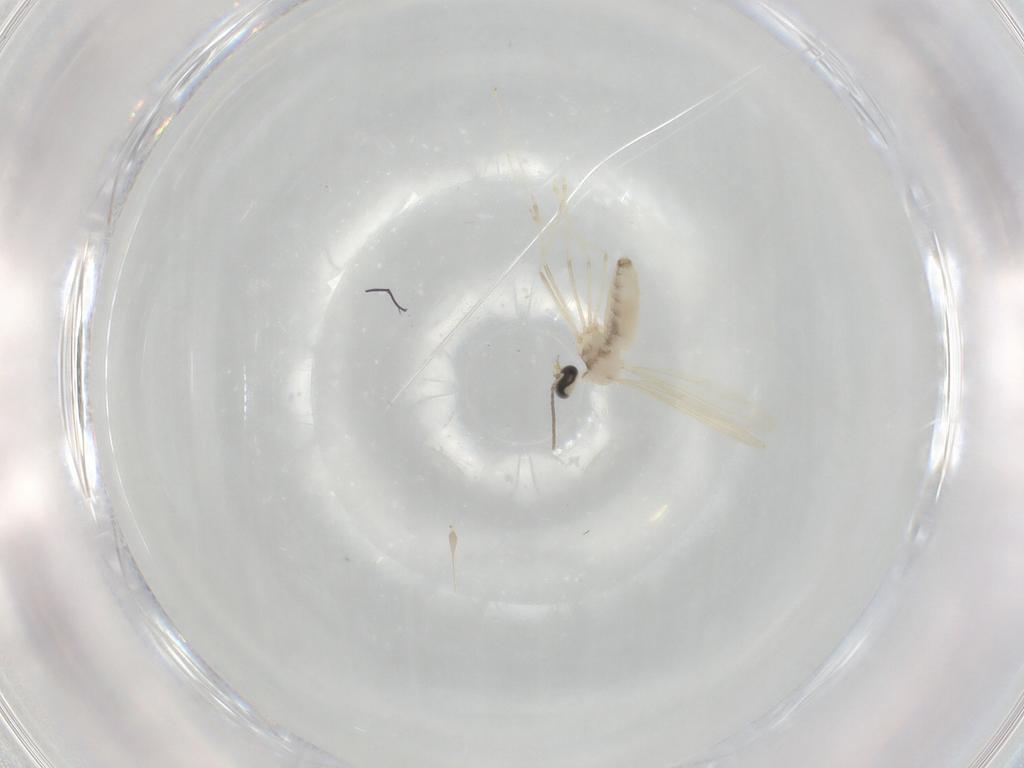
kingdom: Animalia
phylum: Arthropoda
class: Insecta
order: Diptera
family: Cecidomyiidae
